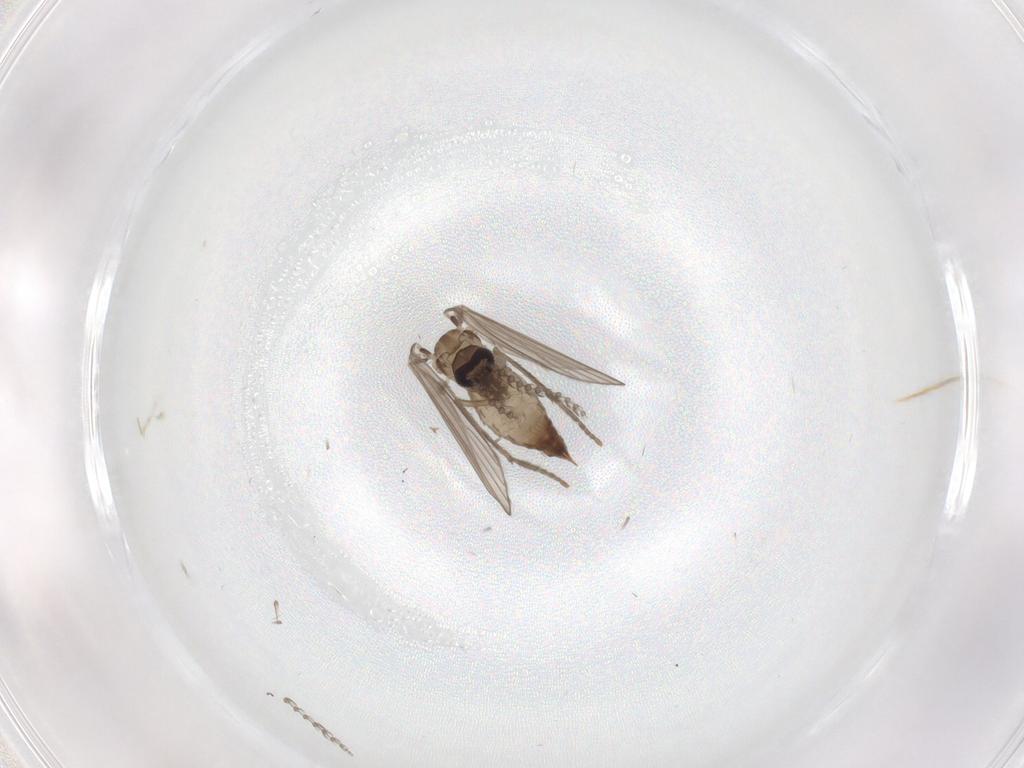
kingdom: Animalia
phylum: Arthropoda
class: Insecta
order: Diptera
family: Psychodidae
